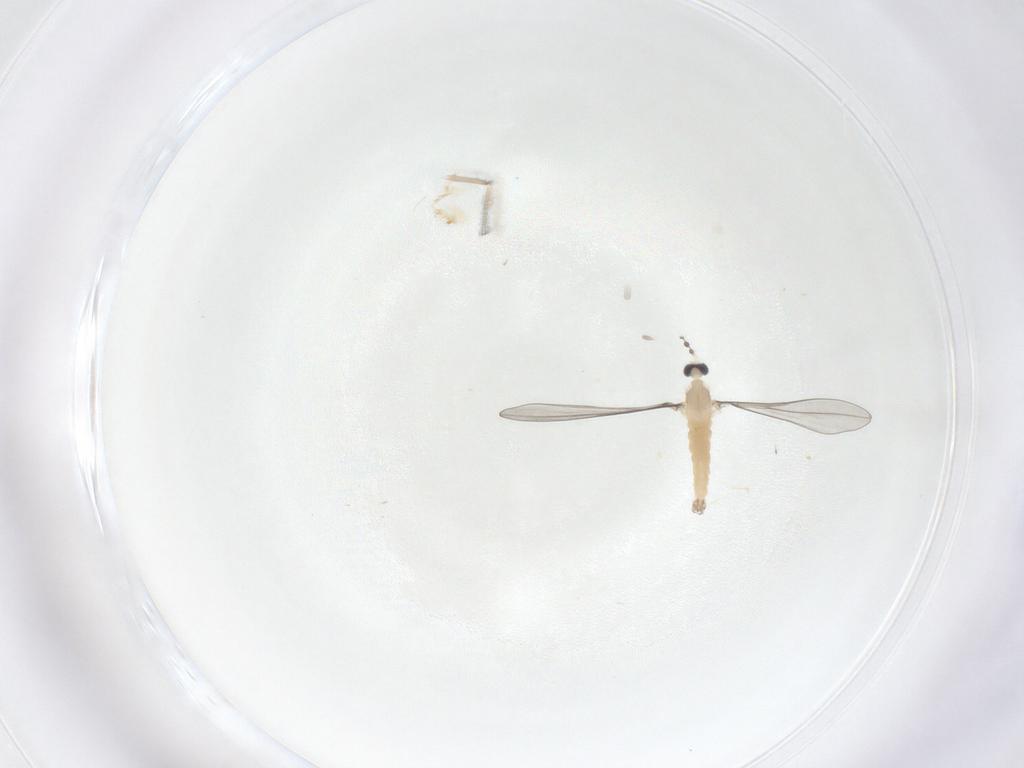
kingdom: Animalia
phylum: Arthropoda
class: Insecta
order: Diptera
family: Cecidomyiidae
